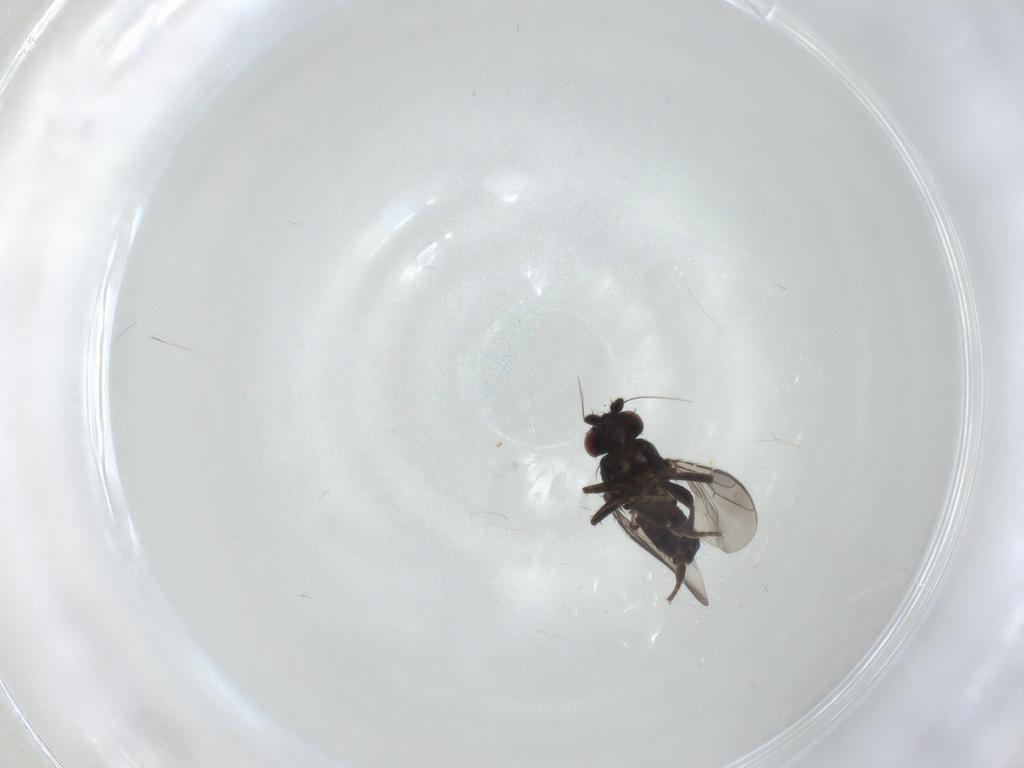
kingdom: Animalia
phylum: Arthropoda
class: Insecta
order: Diptera
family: Sphaeroceridae
